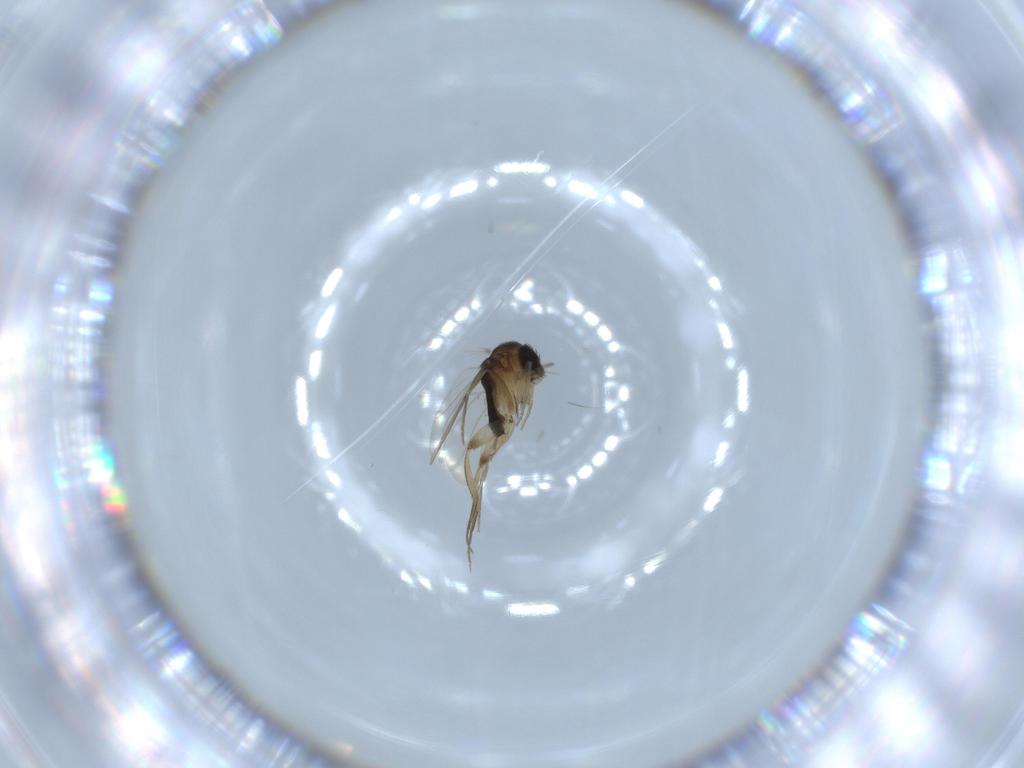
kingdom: Animalia
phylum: Arthropoda
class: Insecta
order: Diptera
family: Phoridae
